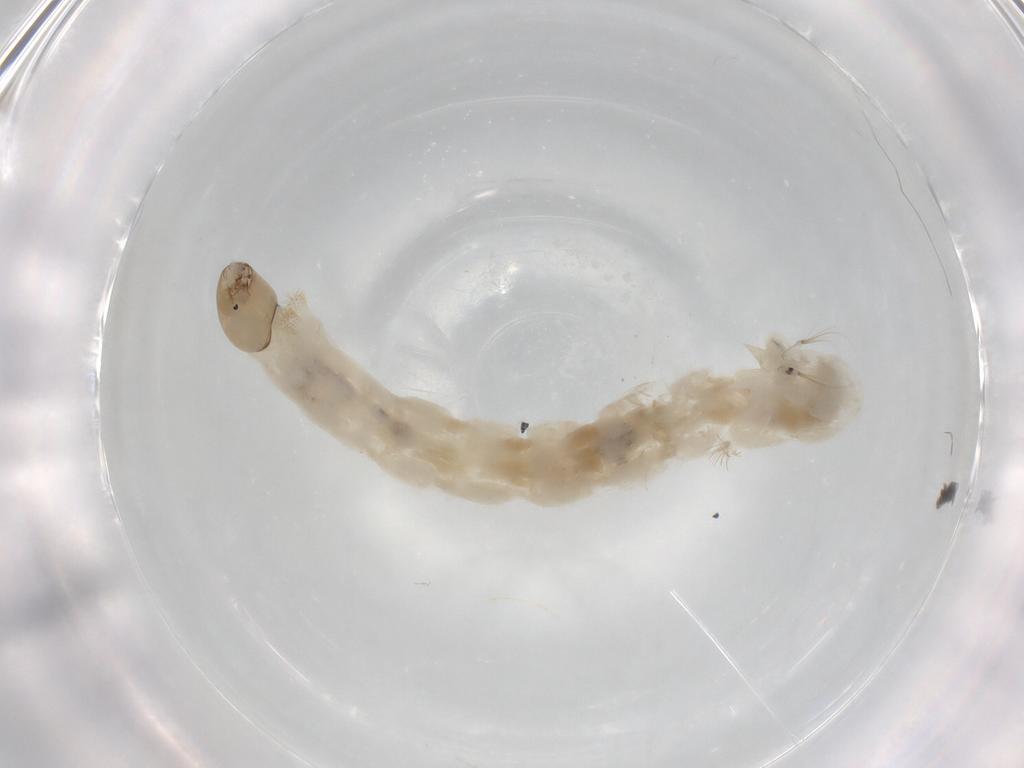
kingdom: Animalia
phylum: Arthropoda
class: Insecta
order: Diptera
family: Chironomidae
